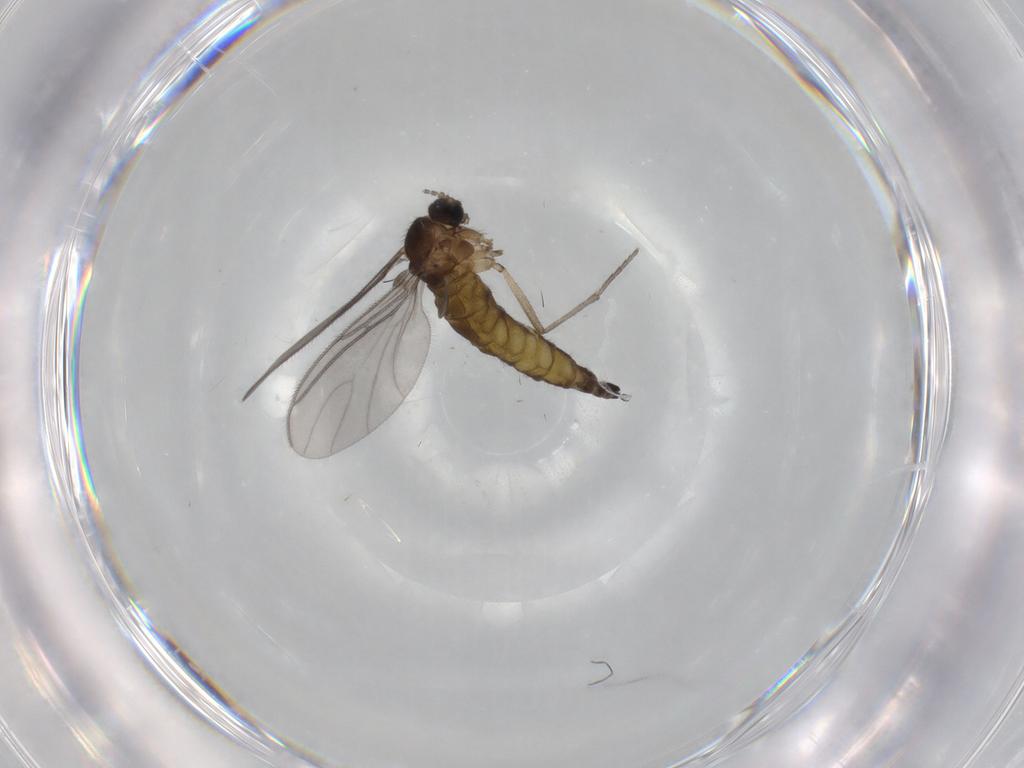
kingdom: Animalia
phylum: Arthropoda
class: Insecta
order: Diptera
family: Sciaridae
